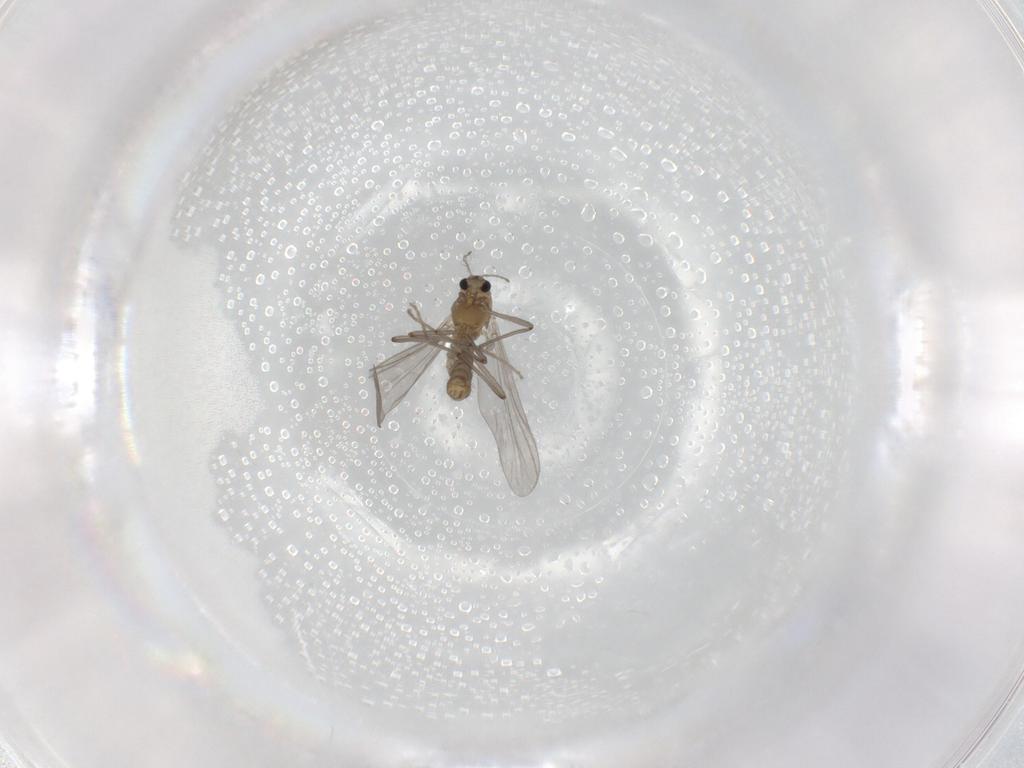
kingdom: Animalia
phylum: Arthropoda
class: Insecta
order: Diptera
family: Chironomidae
